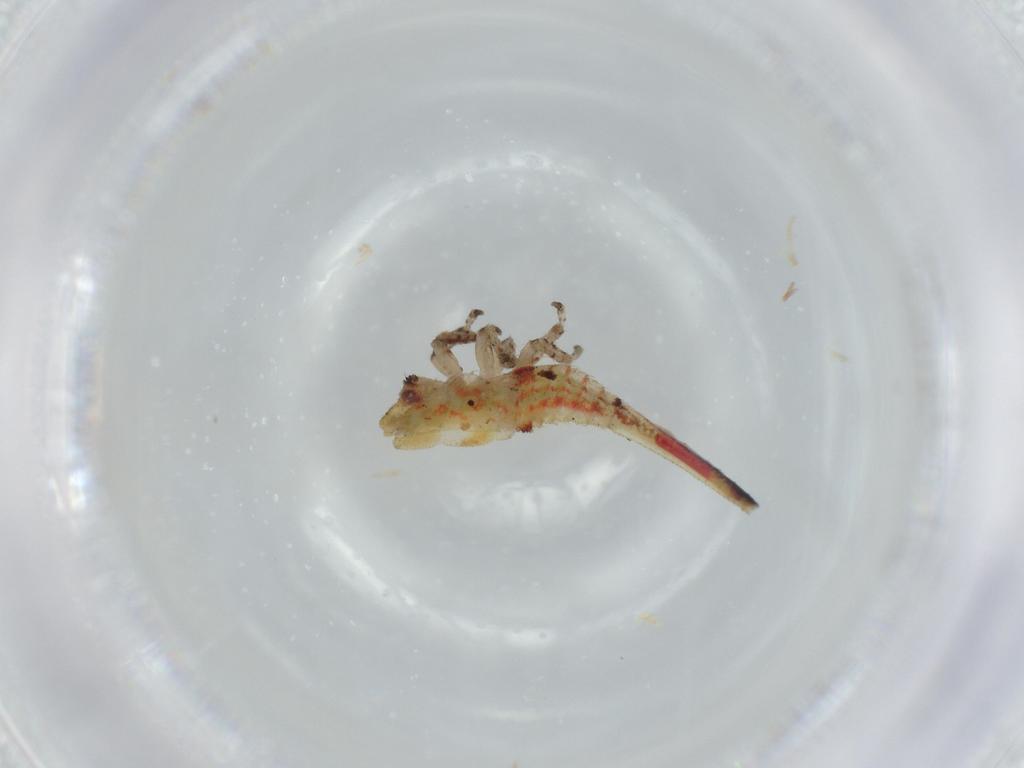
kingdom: Animalia
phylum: Arthropoda
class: Insecta
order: Hemiptera
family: Membracidae
